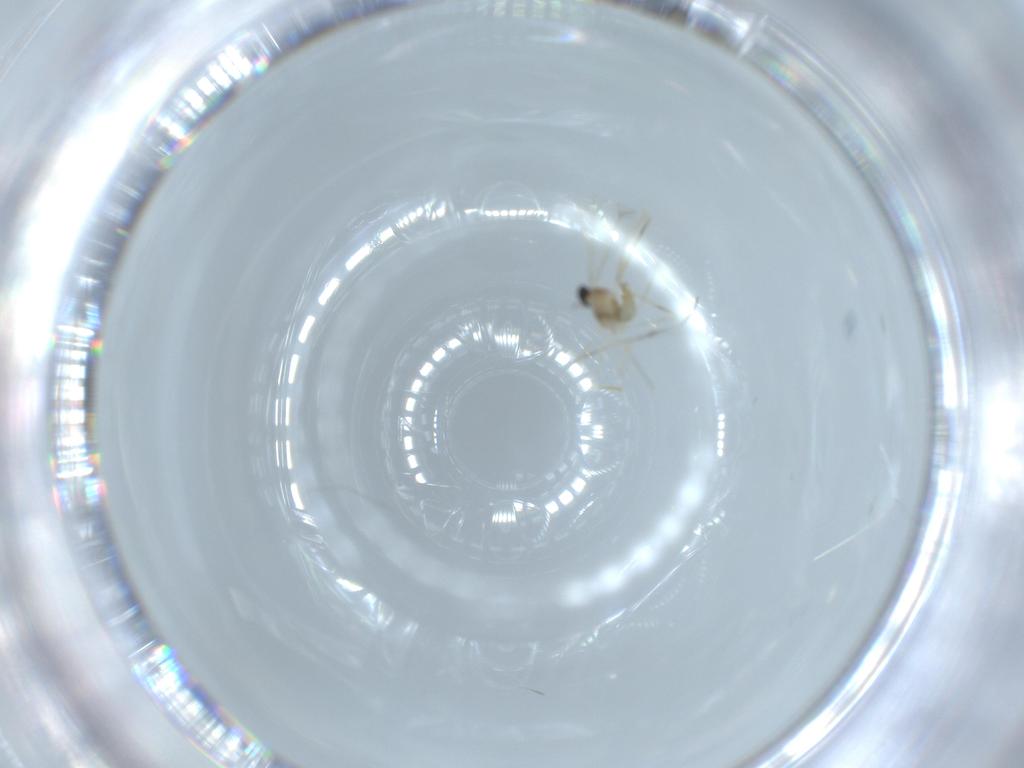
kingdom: Animalia
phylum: Arthropoda
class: Insecta
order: Diptera
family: Cecidomyiidae
